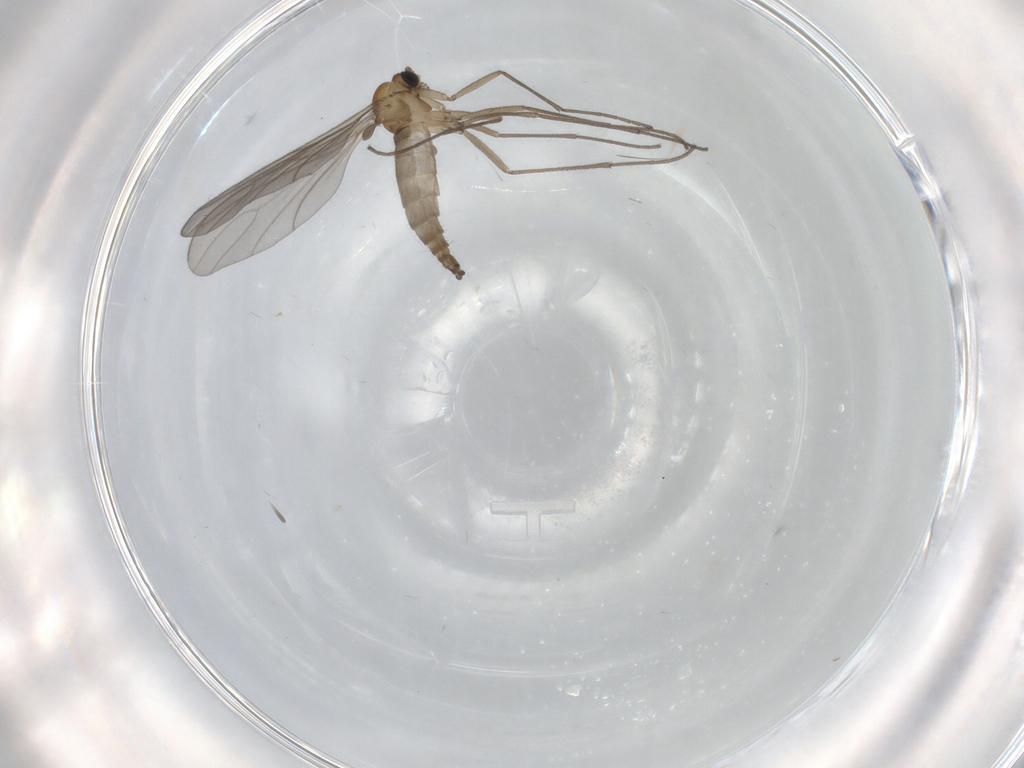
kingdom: Animalia
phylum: Arthropoda
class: Insecta
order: Diptera
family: Sciaridae
